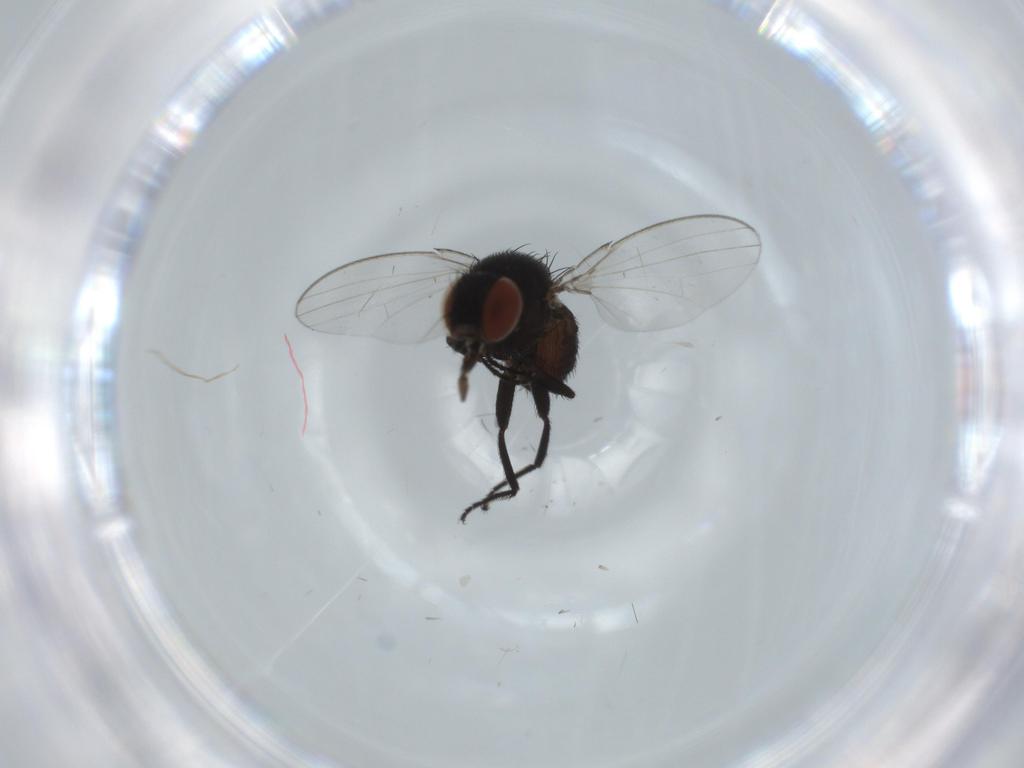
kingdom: Animalia
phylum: Arthropoda
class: Insecta
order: Diptera
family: Milichiidae
